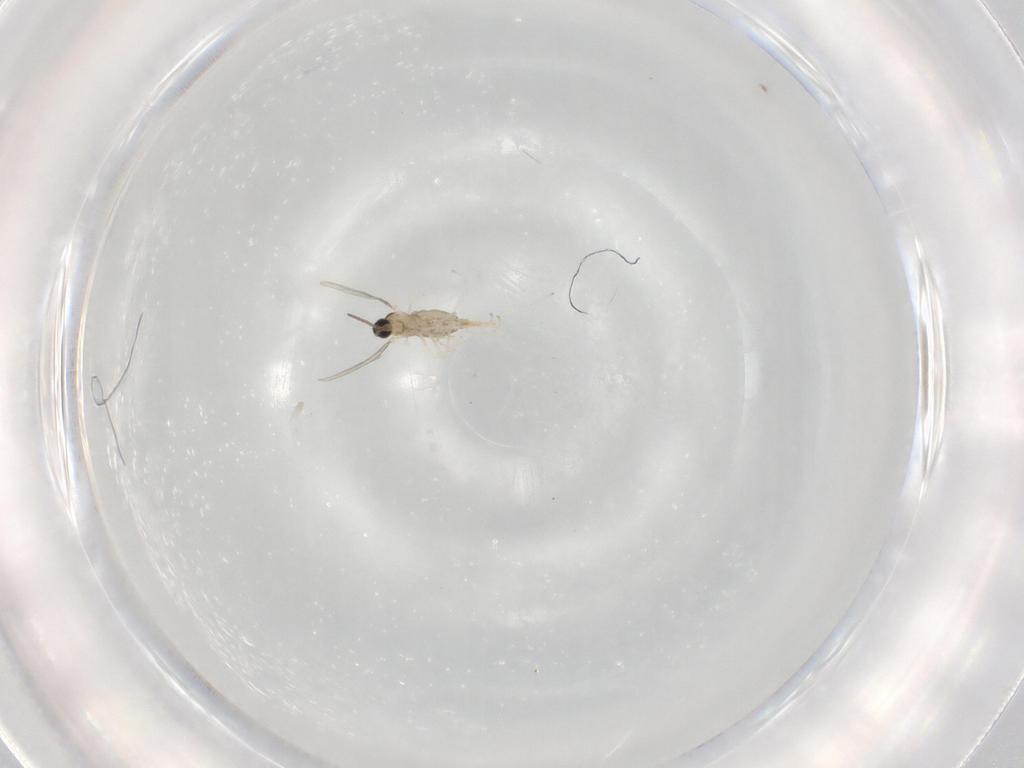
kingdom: Animalia
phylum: Arthropoda
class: Insecta
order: Diptera
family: Cecidomyiidae
